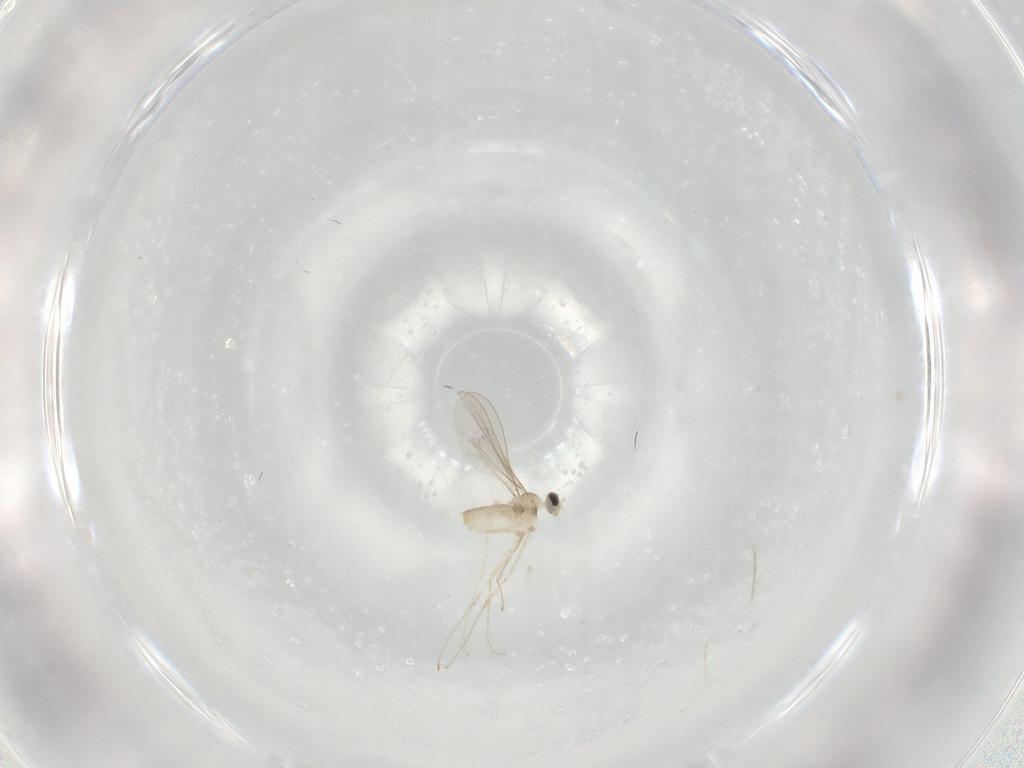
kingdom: Animalia
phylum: Arthropoda
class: Insecta
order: Diptera
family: Cecidomyiidae
